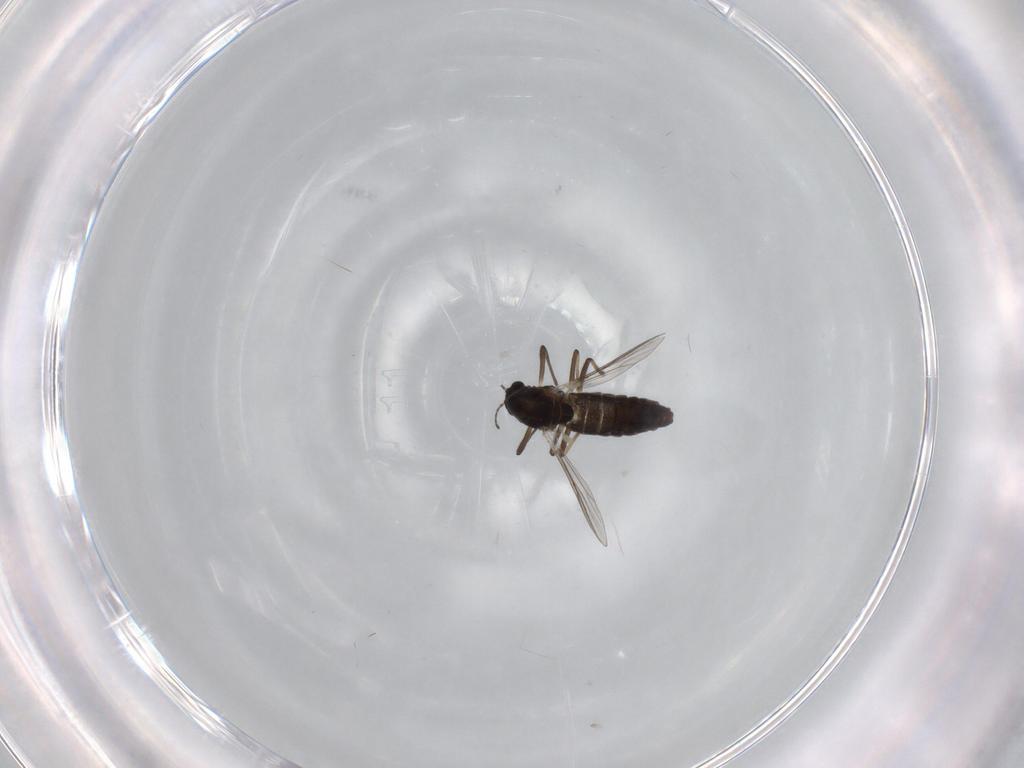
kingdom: Animalia
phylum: Arthropoda
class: Insecta
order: Diptera
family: Chironomidae
